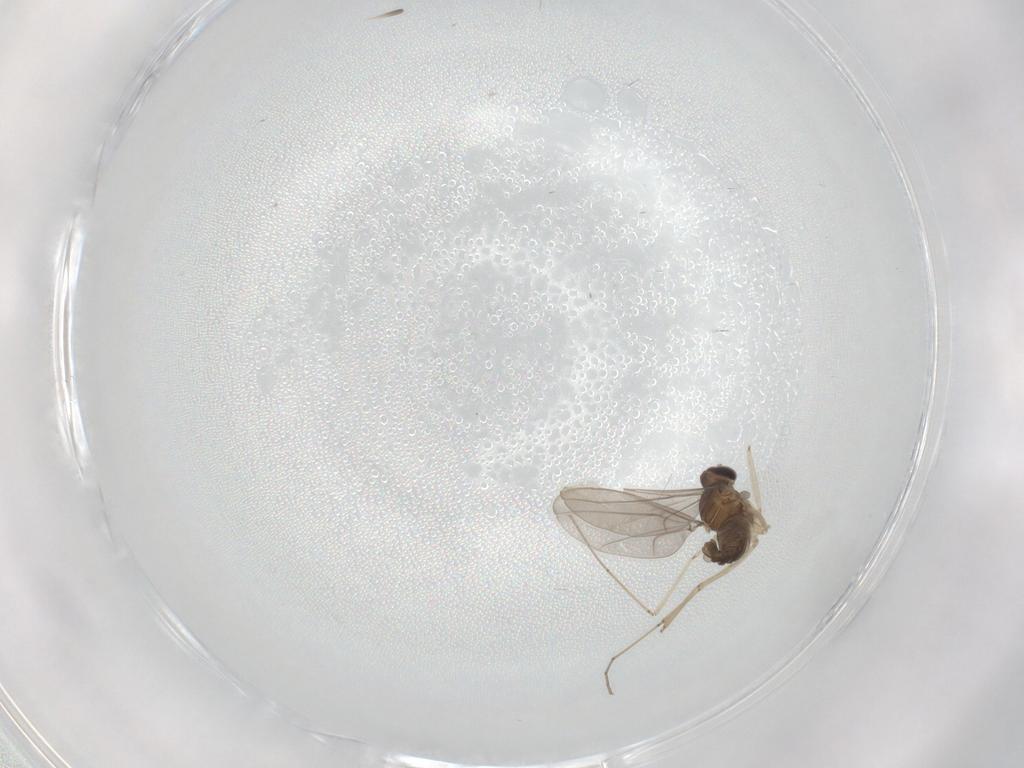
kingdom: Animalia
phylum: Arthropoda
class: Insecta
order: Diptera
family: Cecidomyiidae
